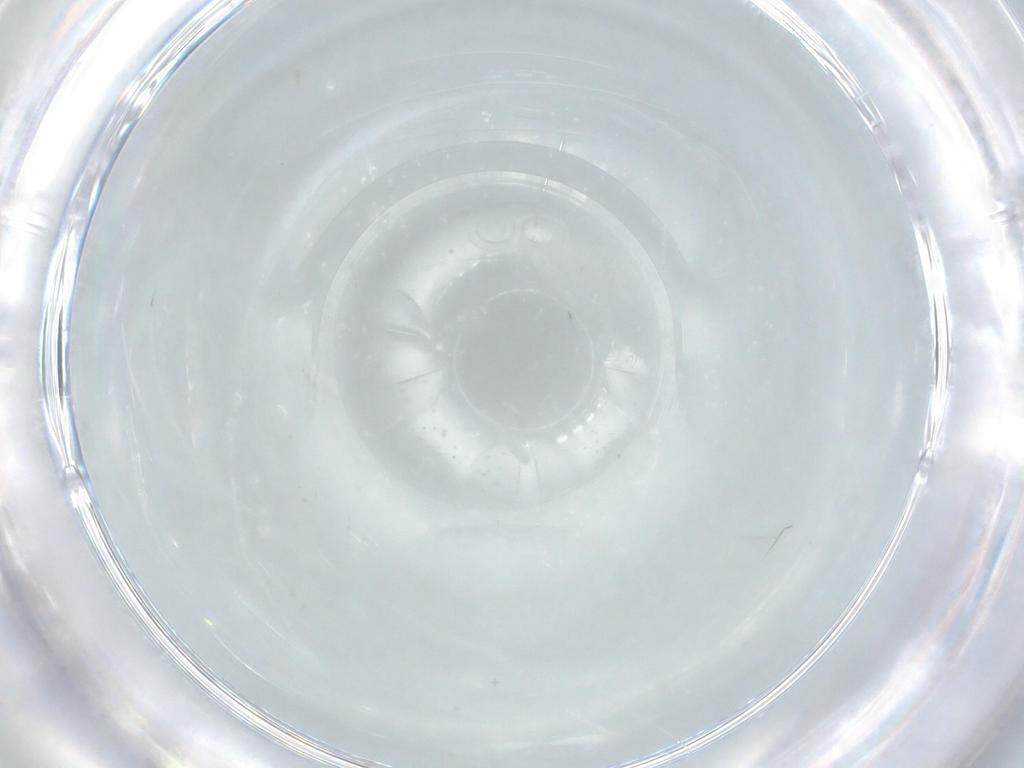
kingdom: Animalia
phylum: Arthropoda
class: Insecta
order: Diptera
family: Chironomidae
